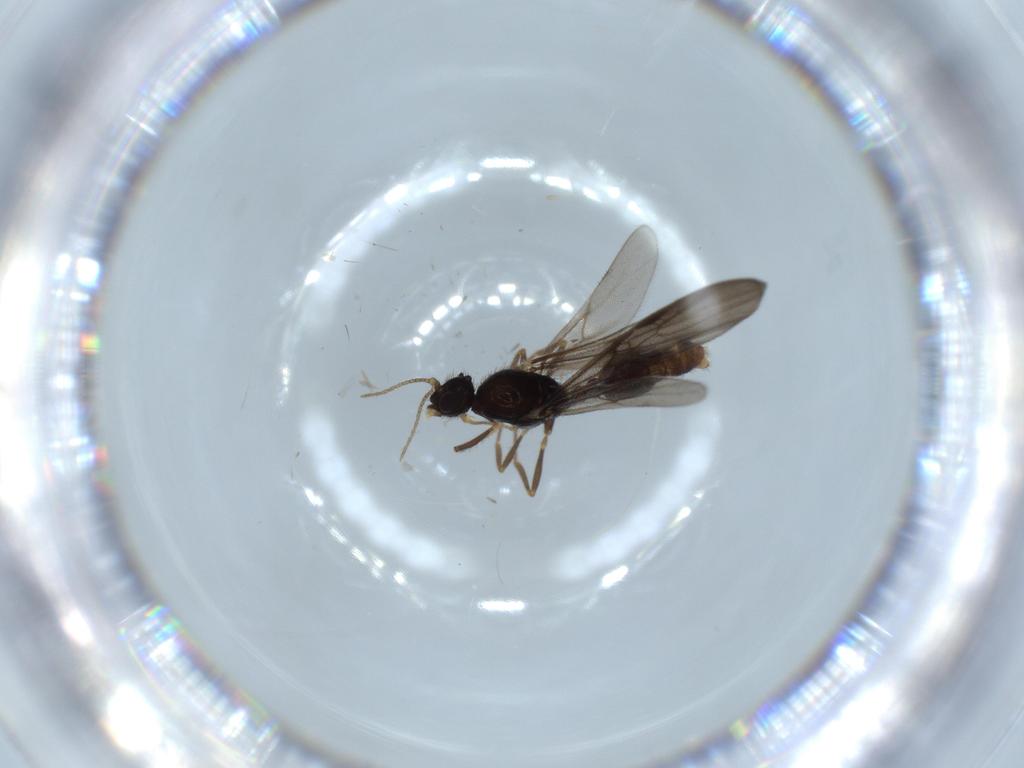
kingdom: Animalia
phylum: Arthropoda
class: Insecta
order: Hymenoptera
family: Formicidae
